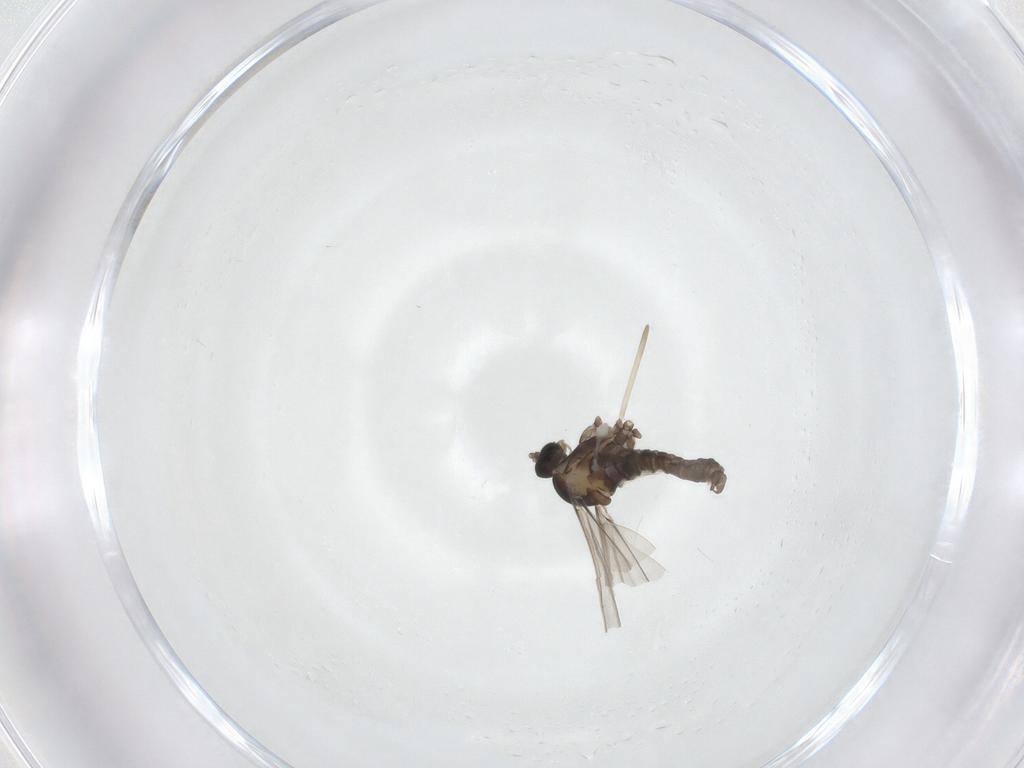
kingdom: Animalia
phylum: Arthropoda
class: Insecta
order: Diptera
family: Cecidomyiidae
